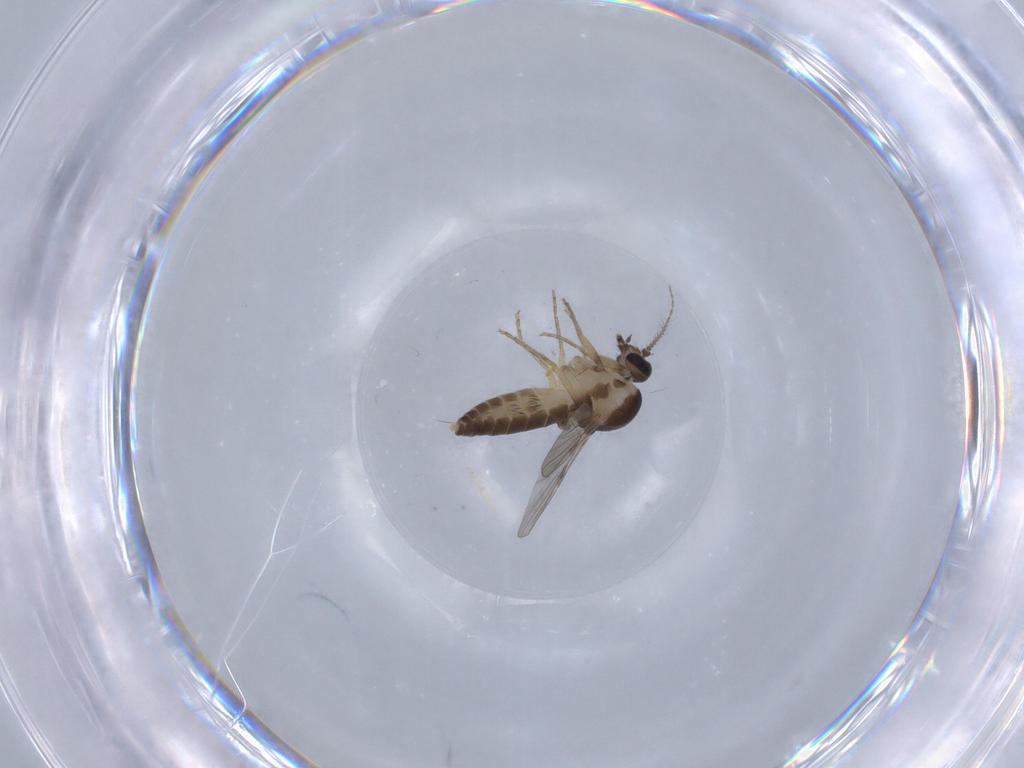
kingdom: Animalia
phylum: Arthropoda
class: Insecta
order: Diptera
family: Ceratopogonidae
